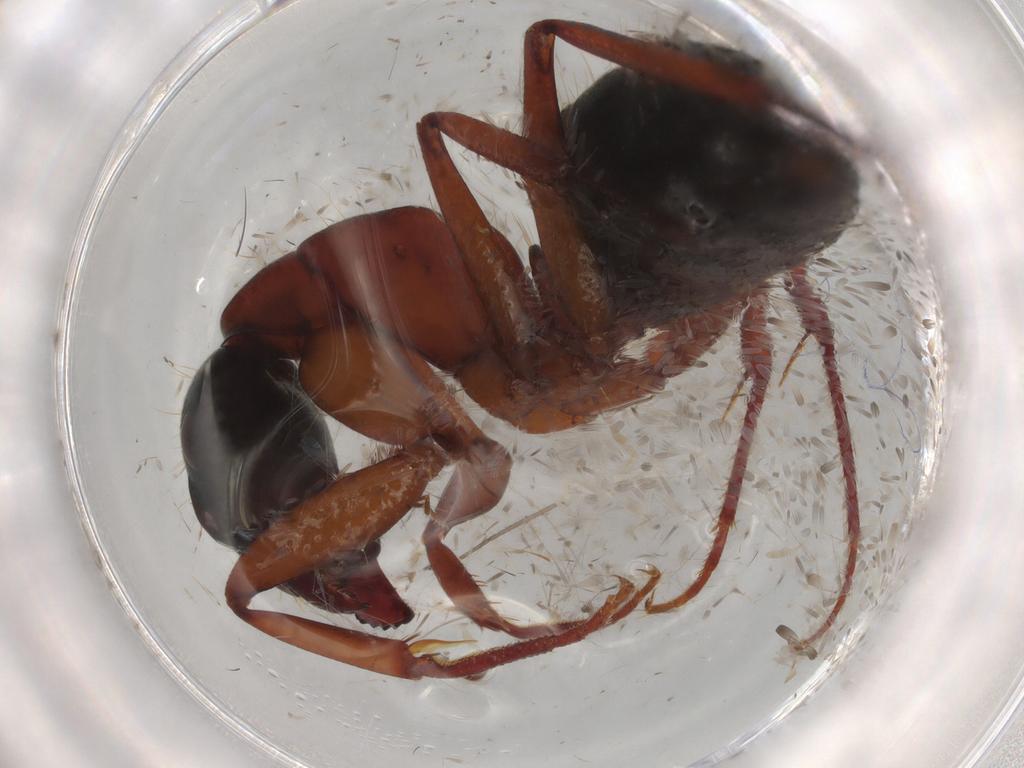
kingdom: Animalia
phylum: Arthropoda
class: Insecta
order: Hymenoptera
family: Formicidae
